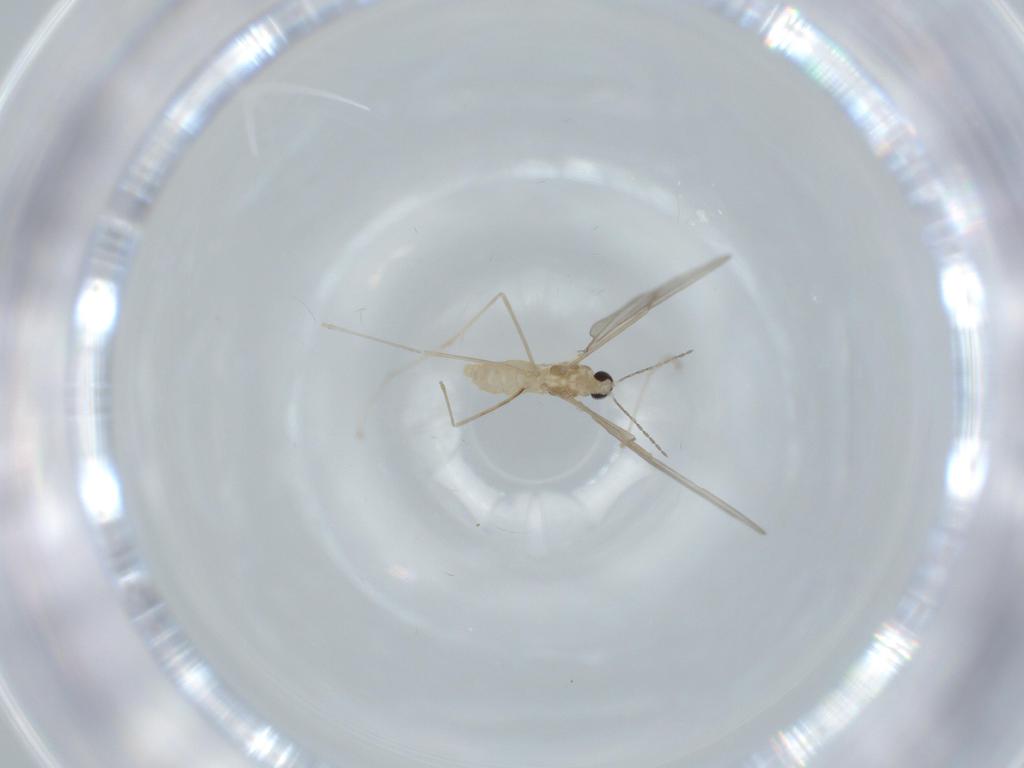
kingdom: Animalia
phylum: Arthropoda
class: Insecta
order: Diptera
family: Cecidomyiidae
